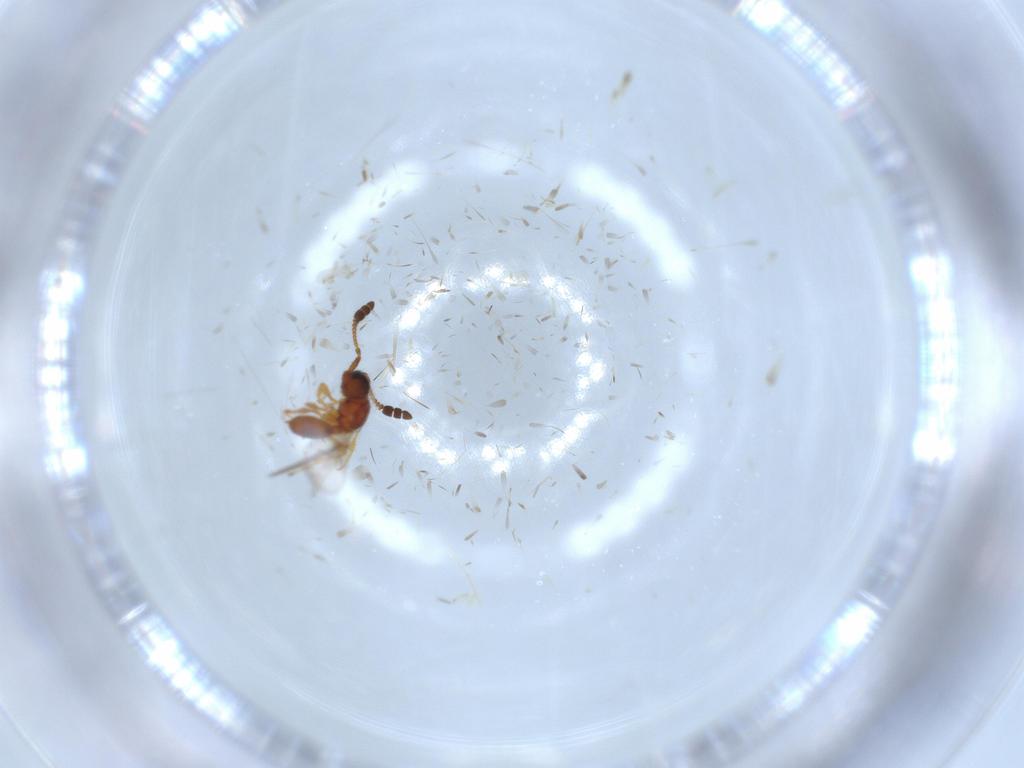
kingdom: Animalia
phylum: Arthropoda
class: Insecta
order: Hymenoptera
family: Diapriidae
